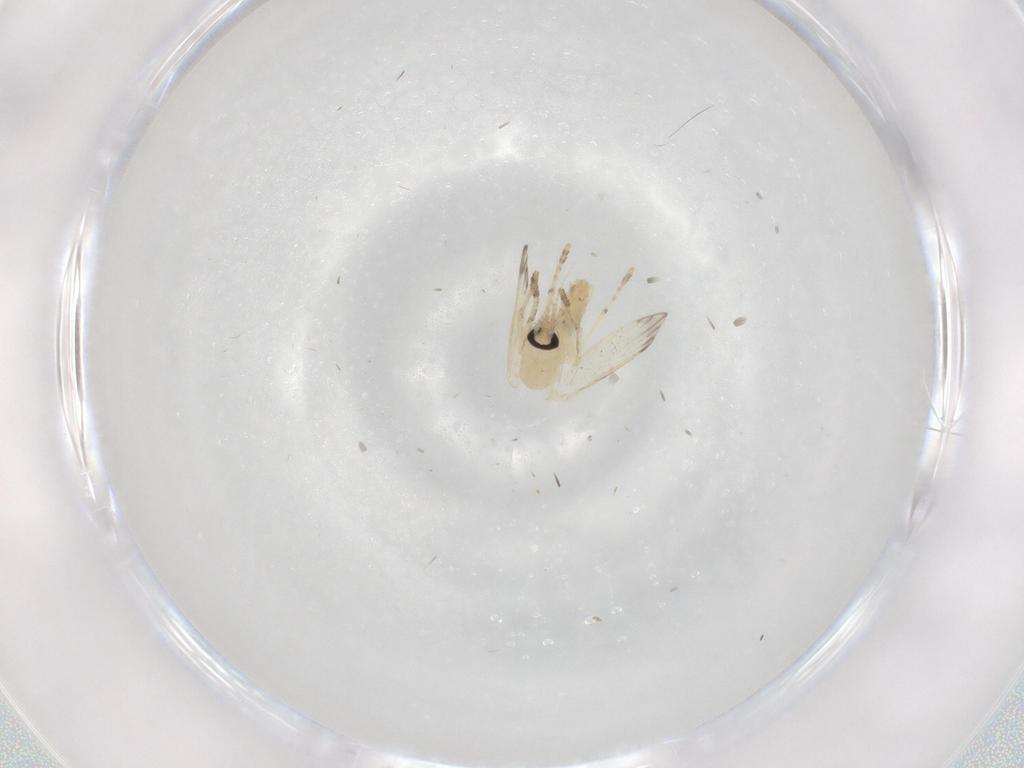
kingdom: Animalia
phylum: Arthropoda
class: Insecta
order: Diptera
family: Psychodidae
